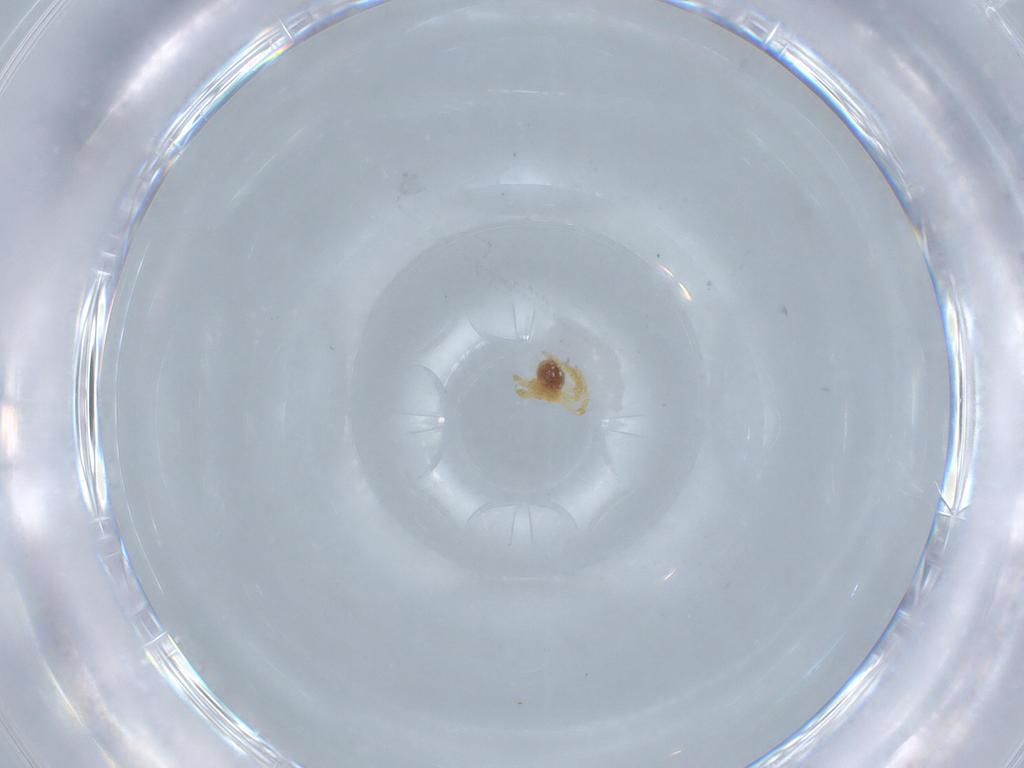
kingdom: Animalia
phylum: Arthropoda
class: Arachnida
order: Araneae
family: Theridiidae
